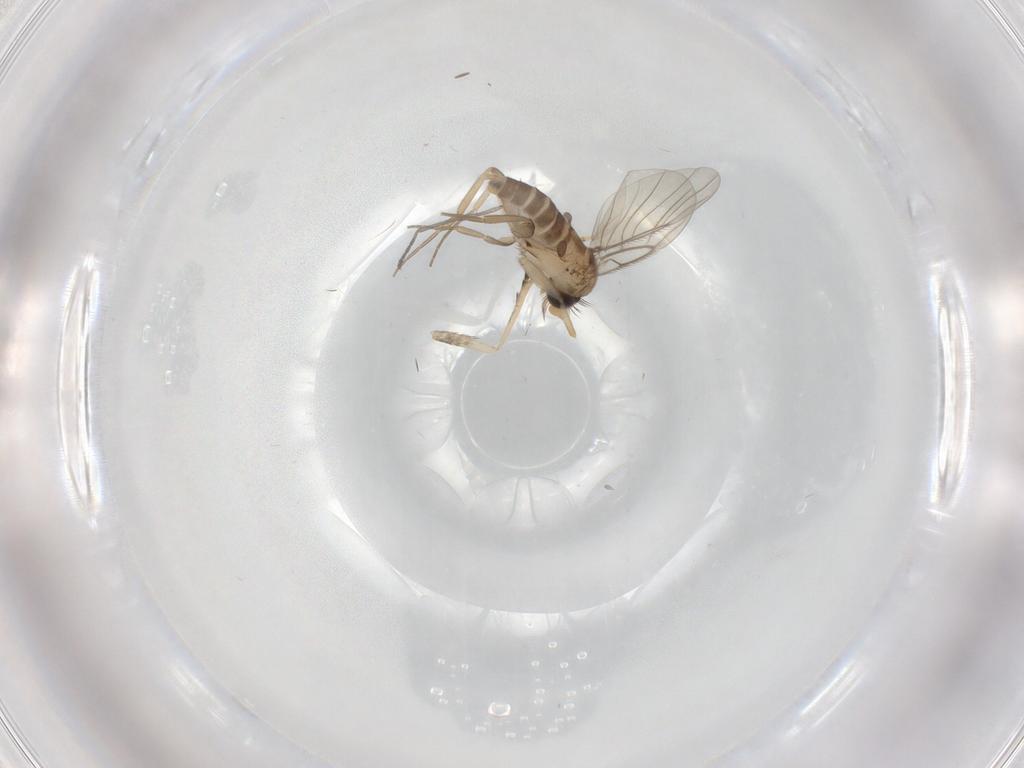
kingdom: Animalia
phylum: Arthropoda
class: Insecta
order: Diptera
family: Sciaridae
